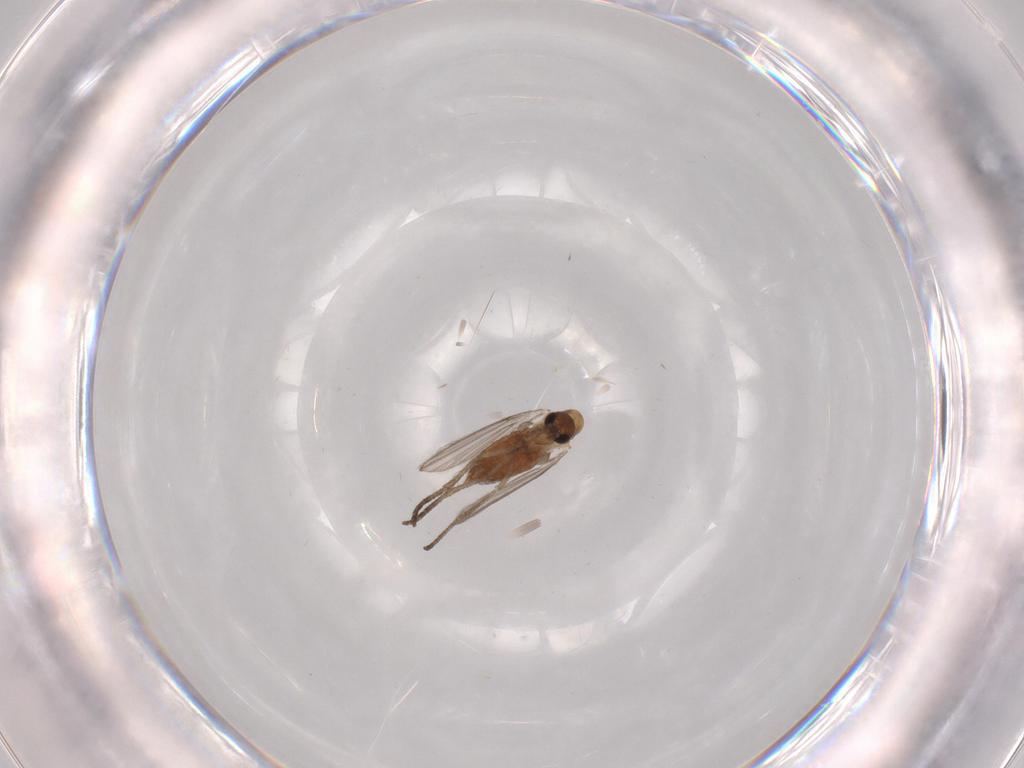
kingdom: Animalia
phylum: Arthropoda
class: Insecta
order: Diptera
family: Psychodidae
